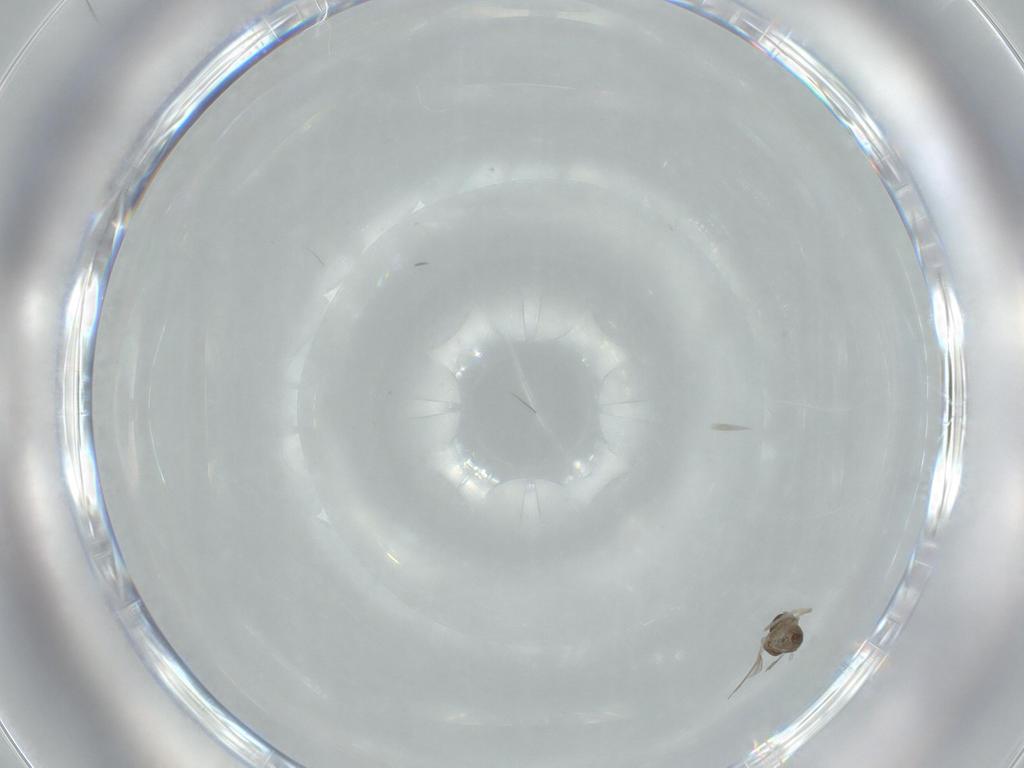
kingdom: Animalia
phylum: Arthropoda
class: Insecta
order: Diptera
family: Cecidomyiidae
